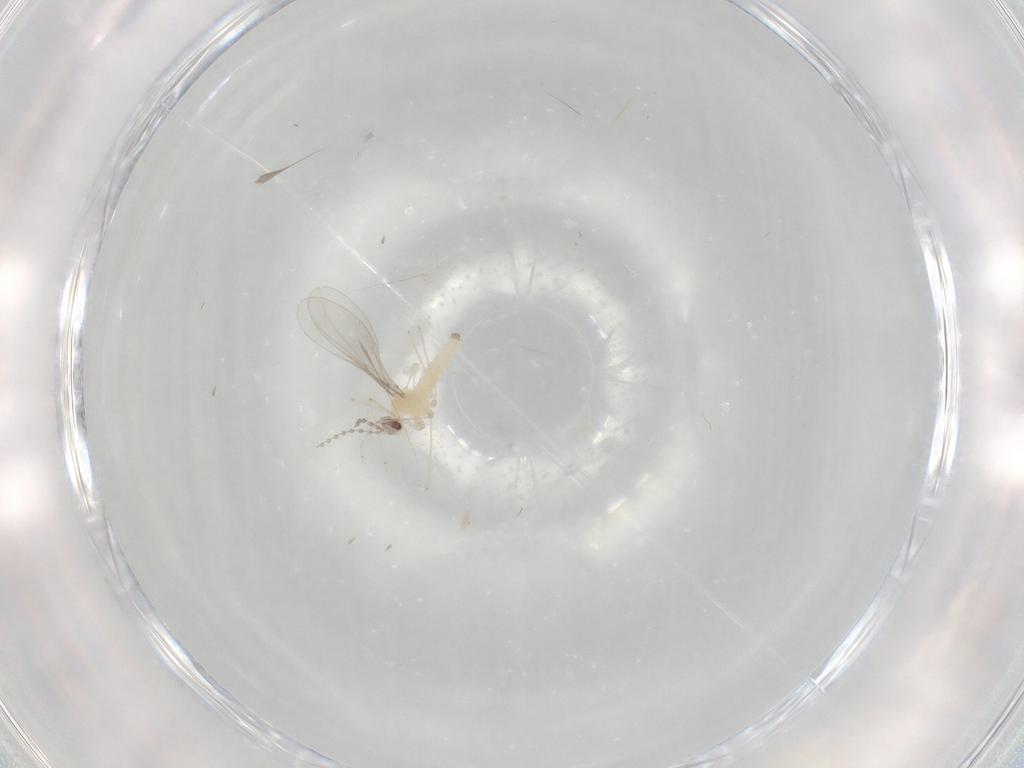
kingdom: Animalia
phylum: Arthropoda
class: Insecta
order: Diptera
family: Cecidomyiidae
